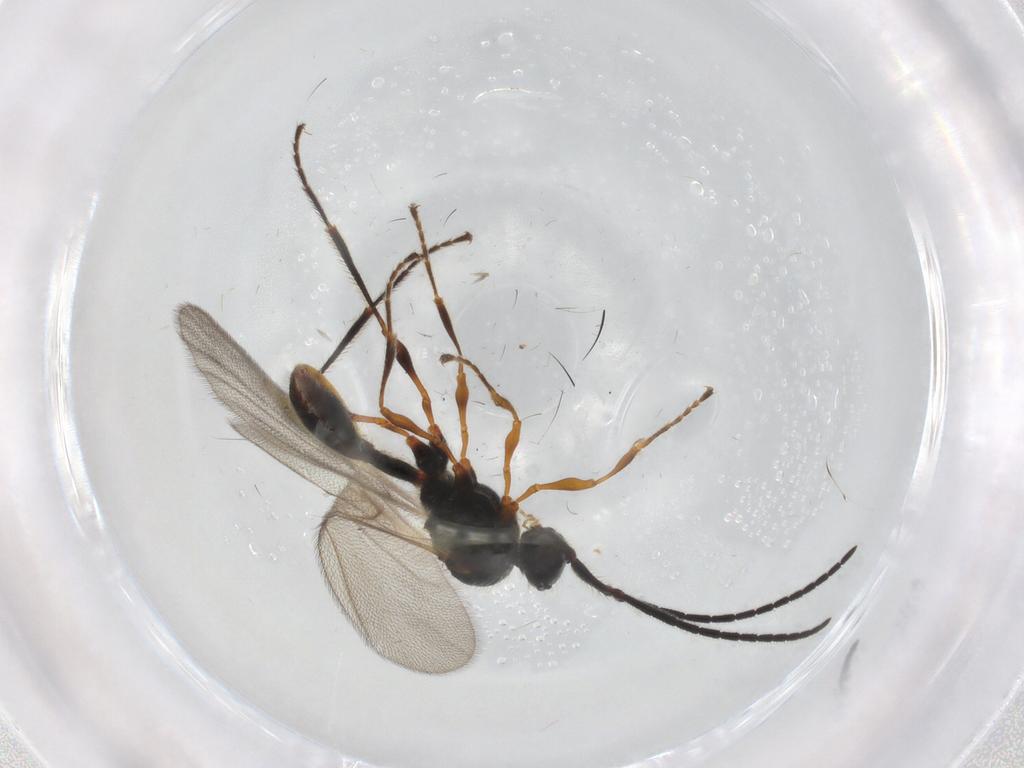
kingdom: Animalia
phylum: Arthropoda
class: Insecta
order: Hymenoptera
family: Diapriidae
